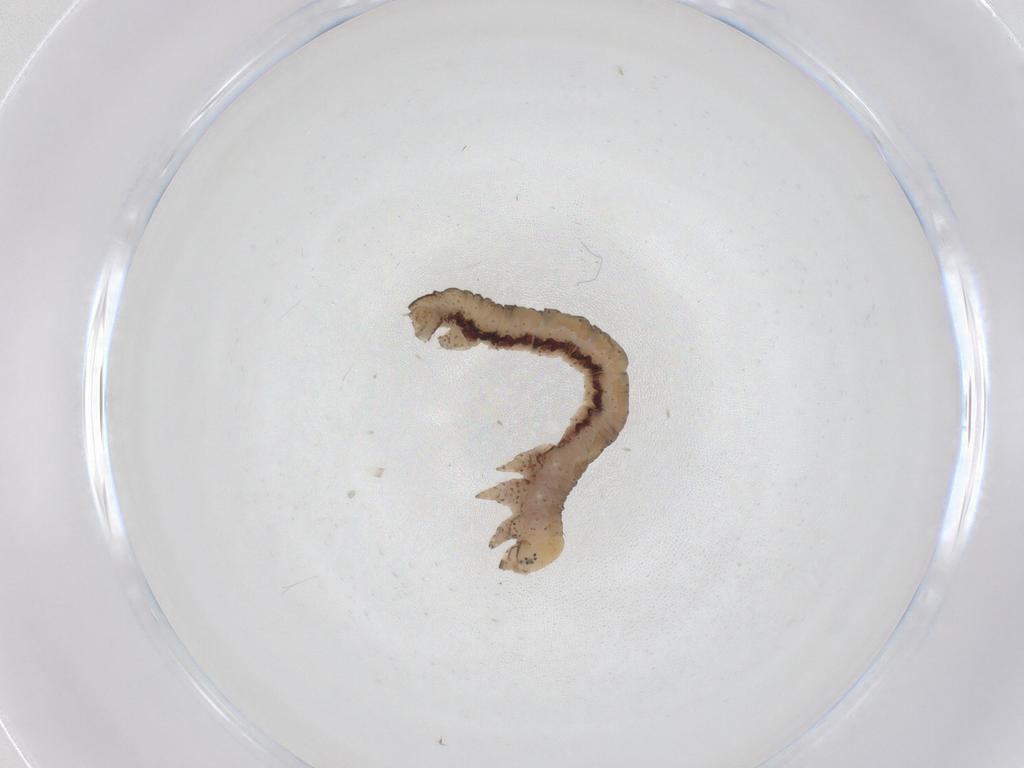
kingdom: Animalia
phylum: Arthropoda
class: Insecta
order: Lepidoptera
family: Geometridae
